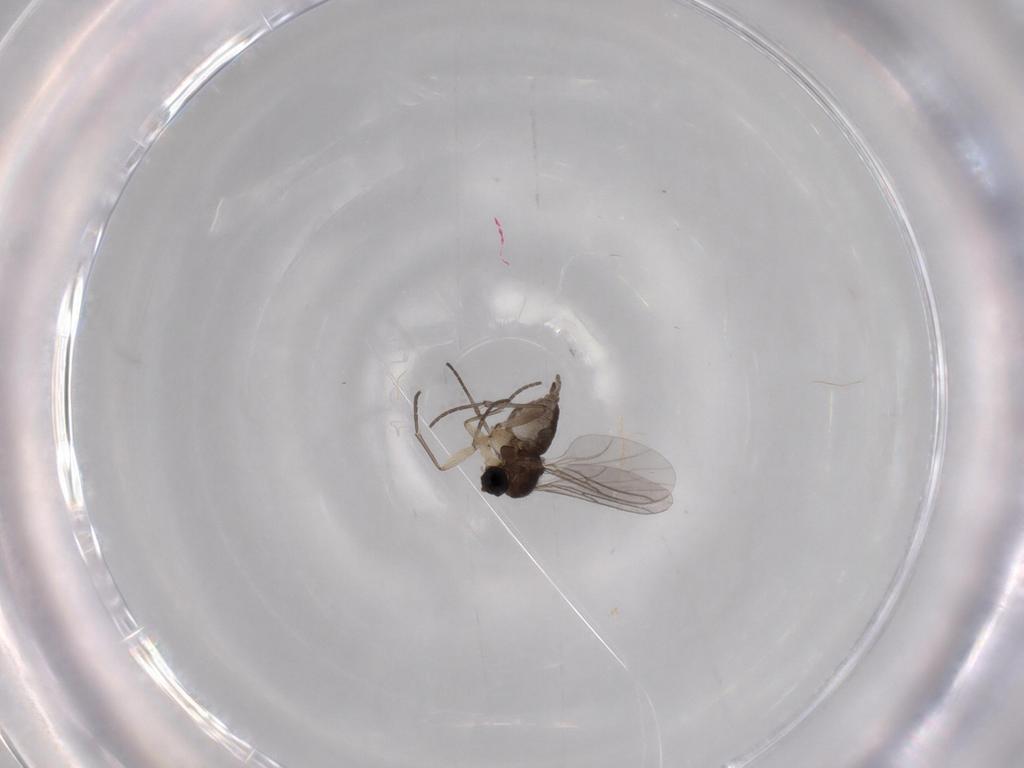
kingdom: Animalia
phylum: Arthropoda
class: Insecta
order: Diptera
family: Sciaridae
